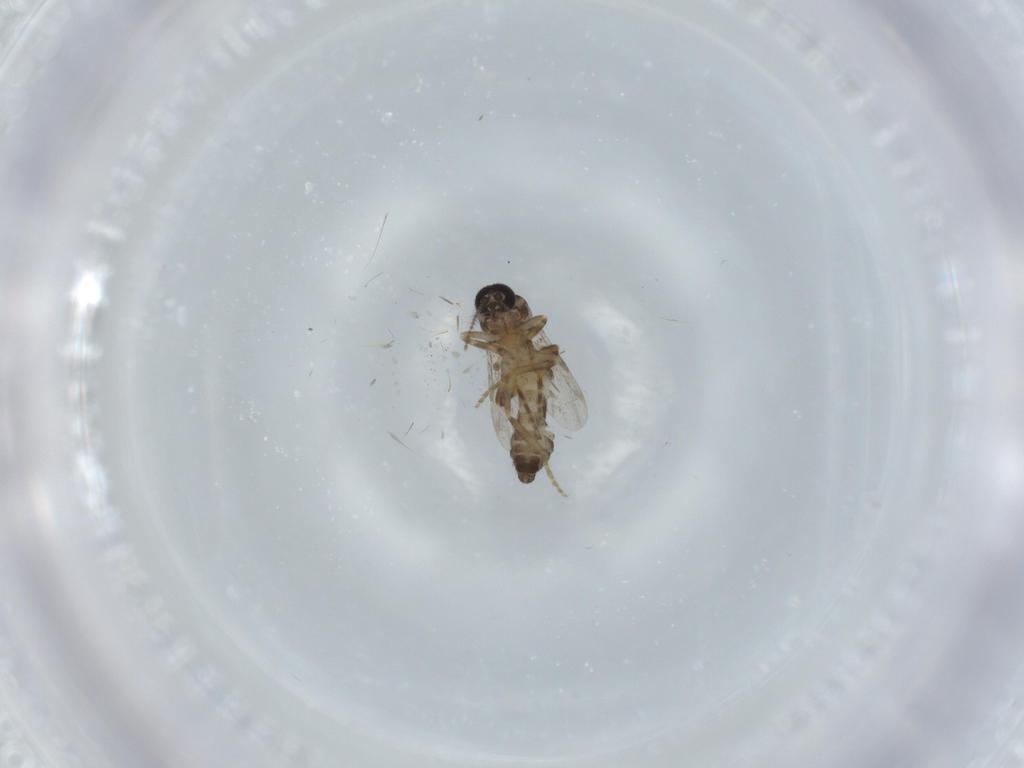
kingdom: Animalia
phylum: Arthropoda
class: Insecta
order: Diptera
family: Ceratopogonidae
